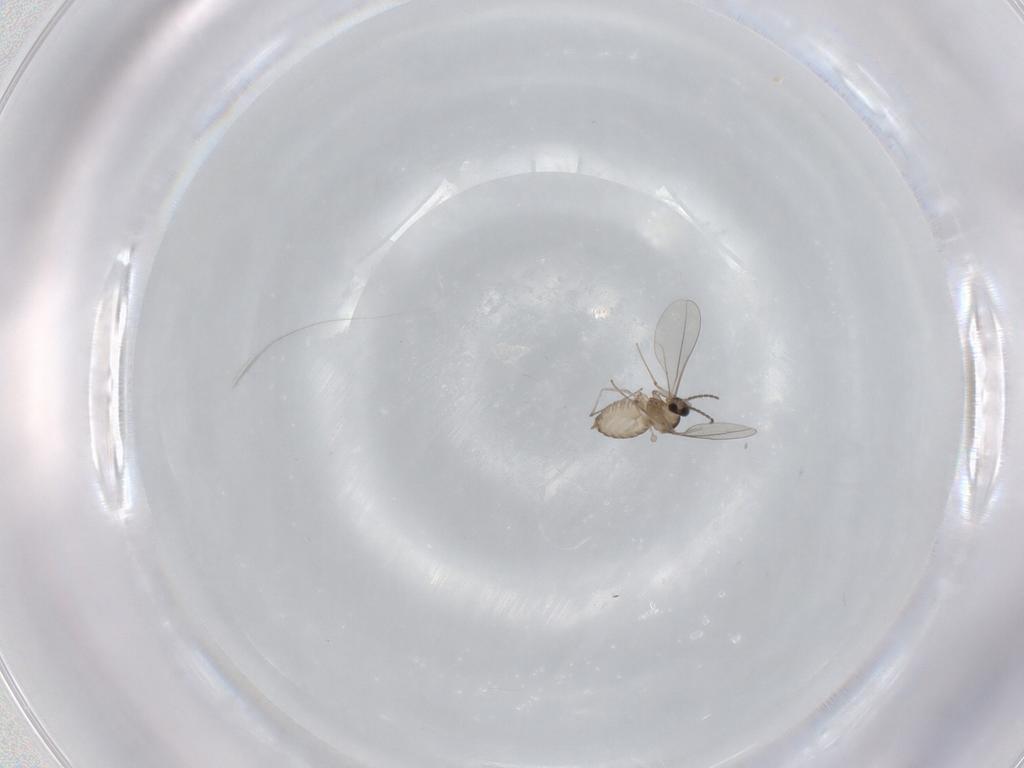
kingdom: Animalia
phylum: Arthropoda
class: Insecta
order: Diptera
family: Cecidomyiidae
